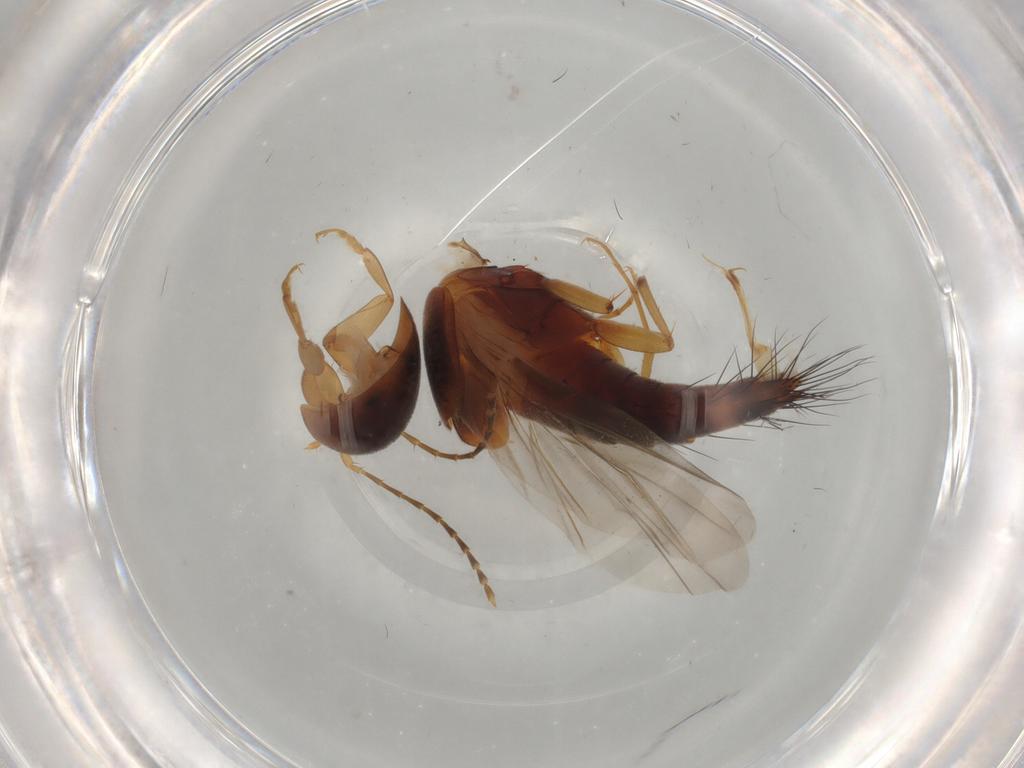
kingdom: Animalia
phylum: Arthropoda
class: Insecta
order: Coleoptera
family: Staphylinidae
